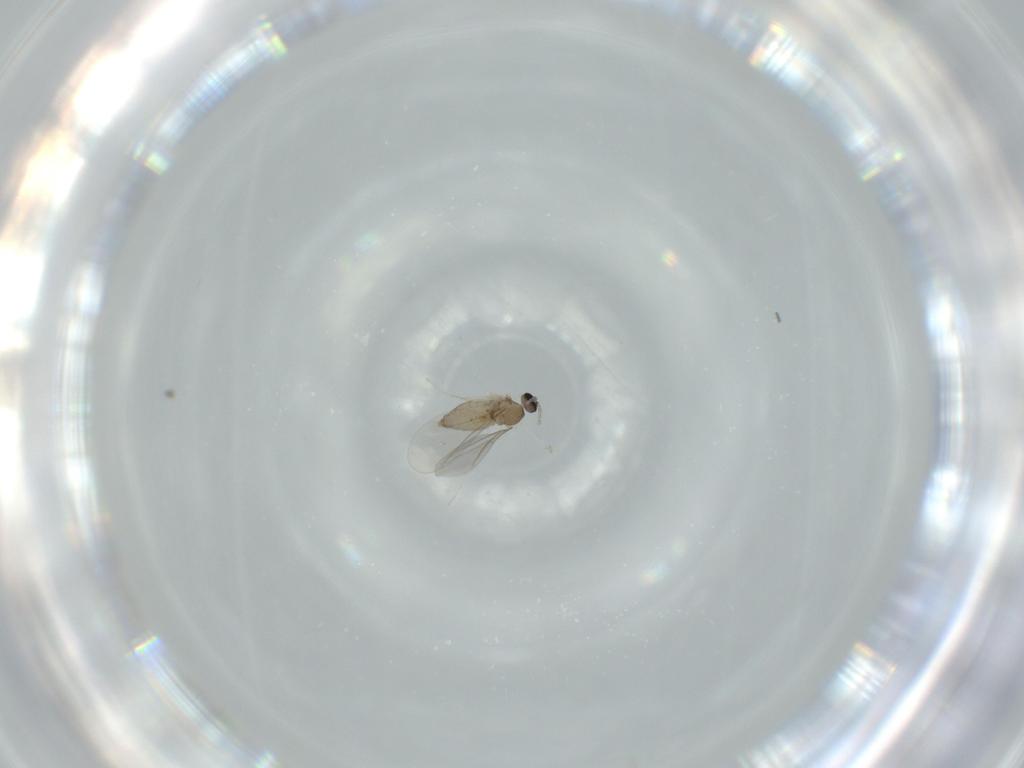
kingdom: Animalia
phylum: Arthropoda
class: Insecta
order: Diptera
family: Cecidomyiidae
